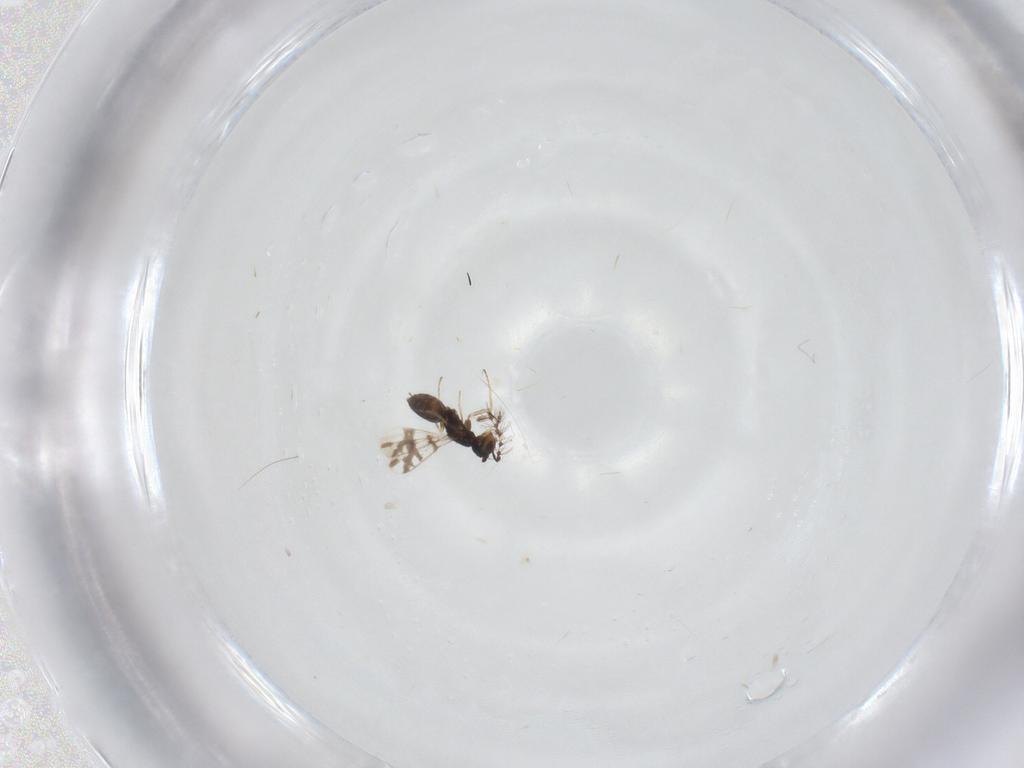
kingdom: Animalia
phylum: Arthropoda
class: Insecta
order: Hymenoptera
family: Eulophidae
